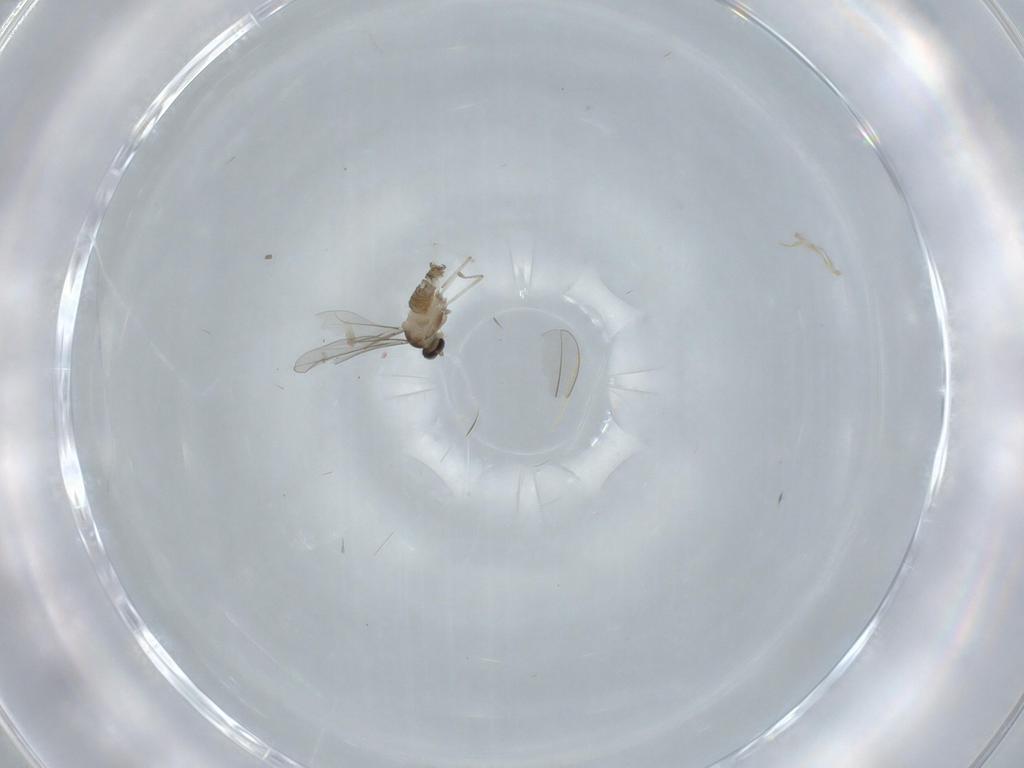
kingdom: Animalia
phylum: Arthropoda
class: Insecta
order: Diptera
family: Cecidomyiidae
